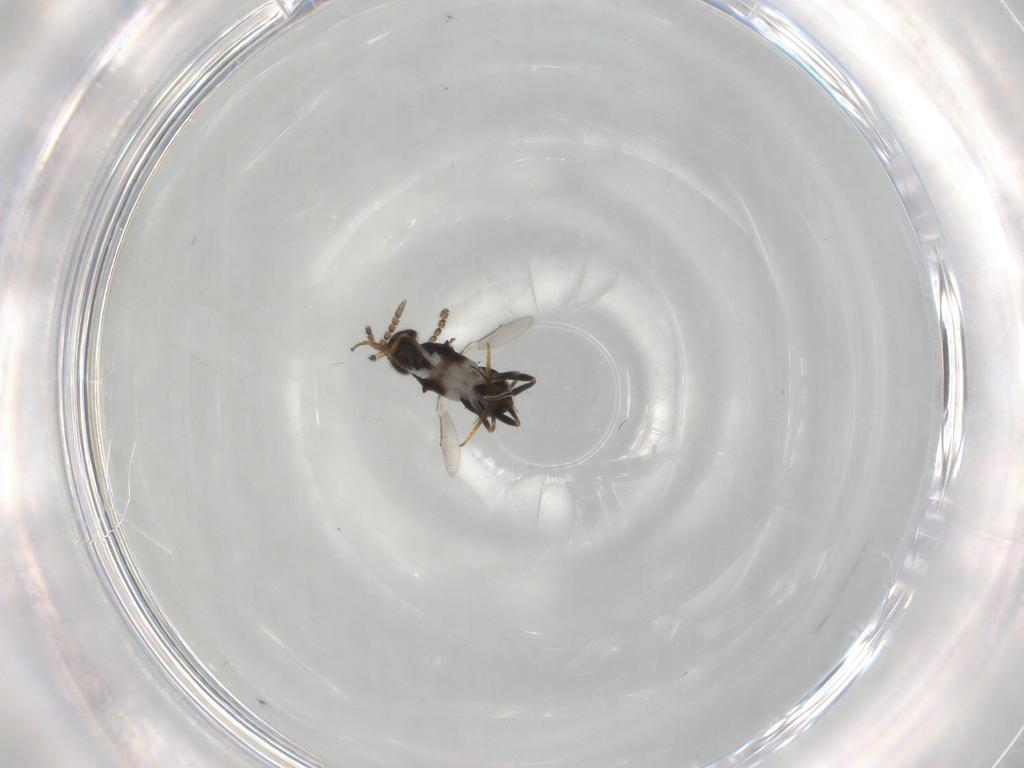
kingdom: Animalia
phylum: Arthropoda
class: Insecta
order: Hymenoptera
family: Encyrtidae
